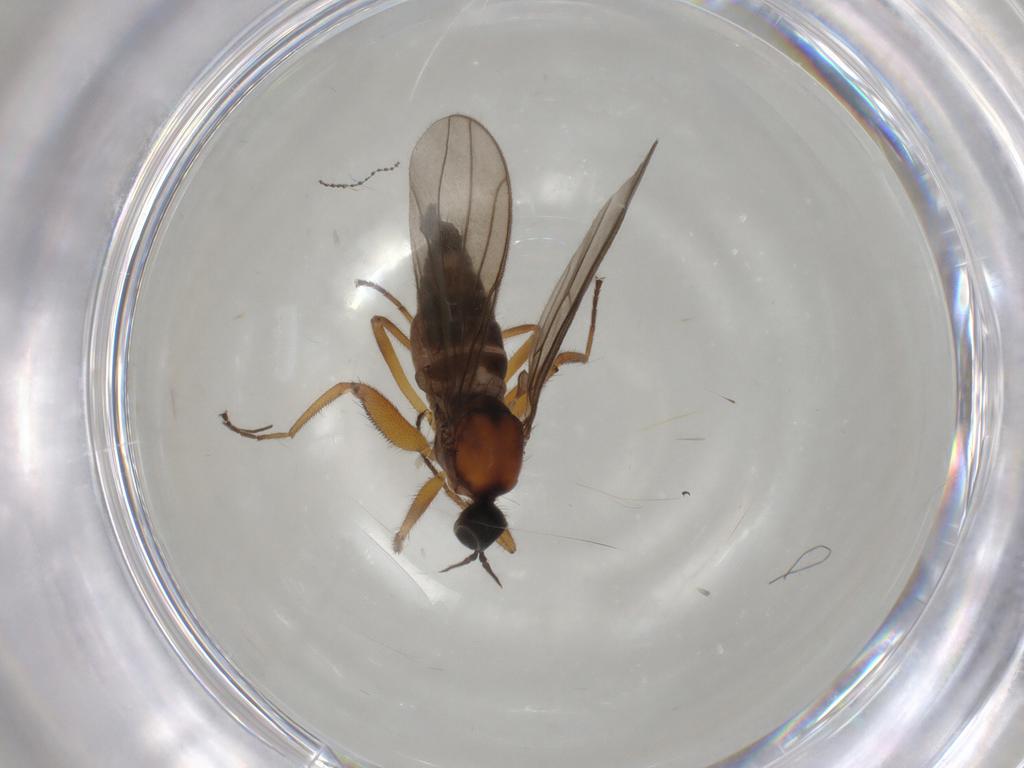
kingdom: Animalia
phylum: Arthropoda
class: Insecta
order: Diptera
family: Hybotidae
